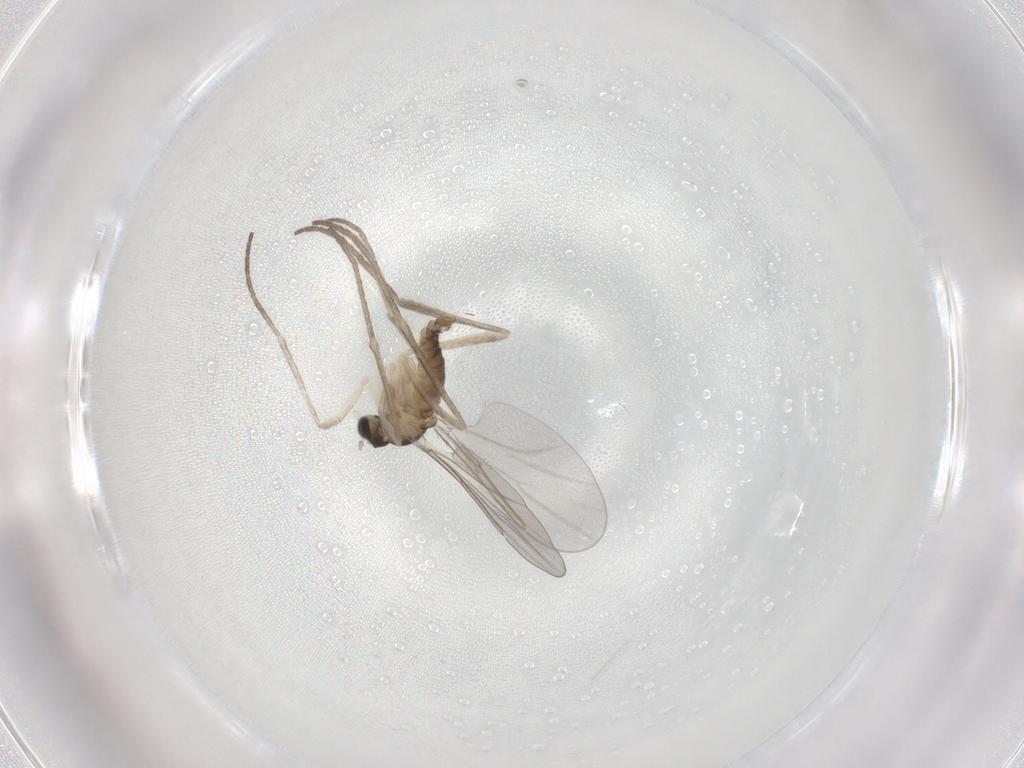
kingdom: Animalia
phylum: Arthropoda
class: Insecta
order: Diptera
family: Cecidomyiidae
